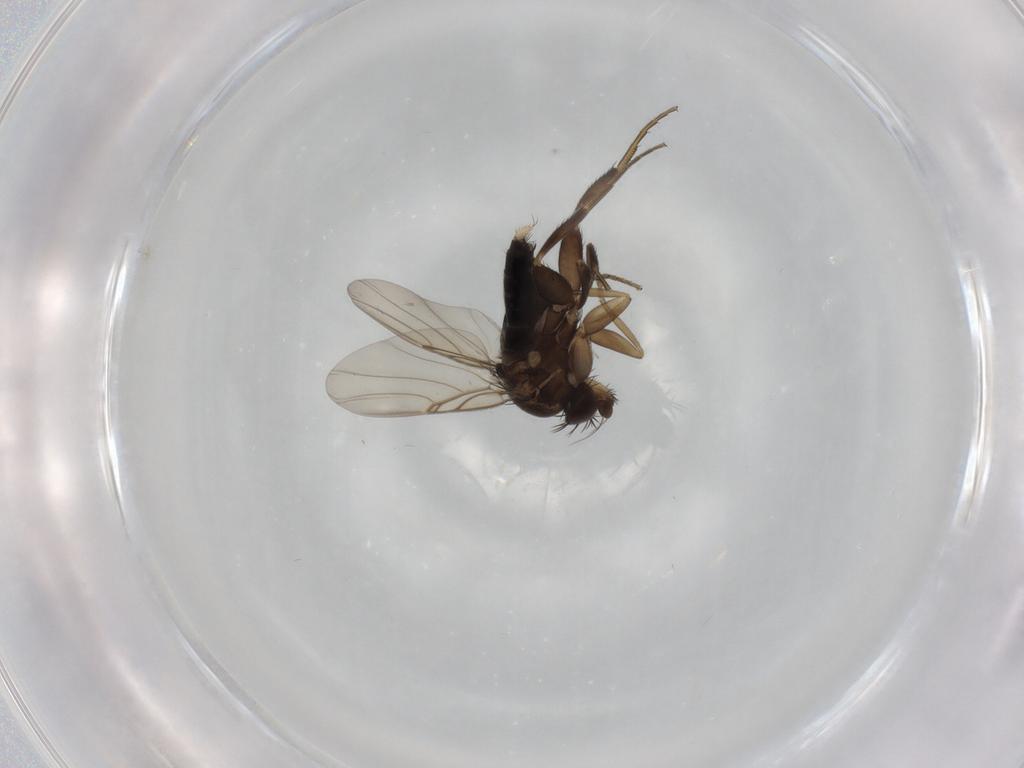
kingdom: Animalia
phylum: Arthropoda
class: Insecta
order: Diptera
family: Phoridae
